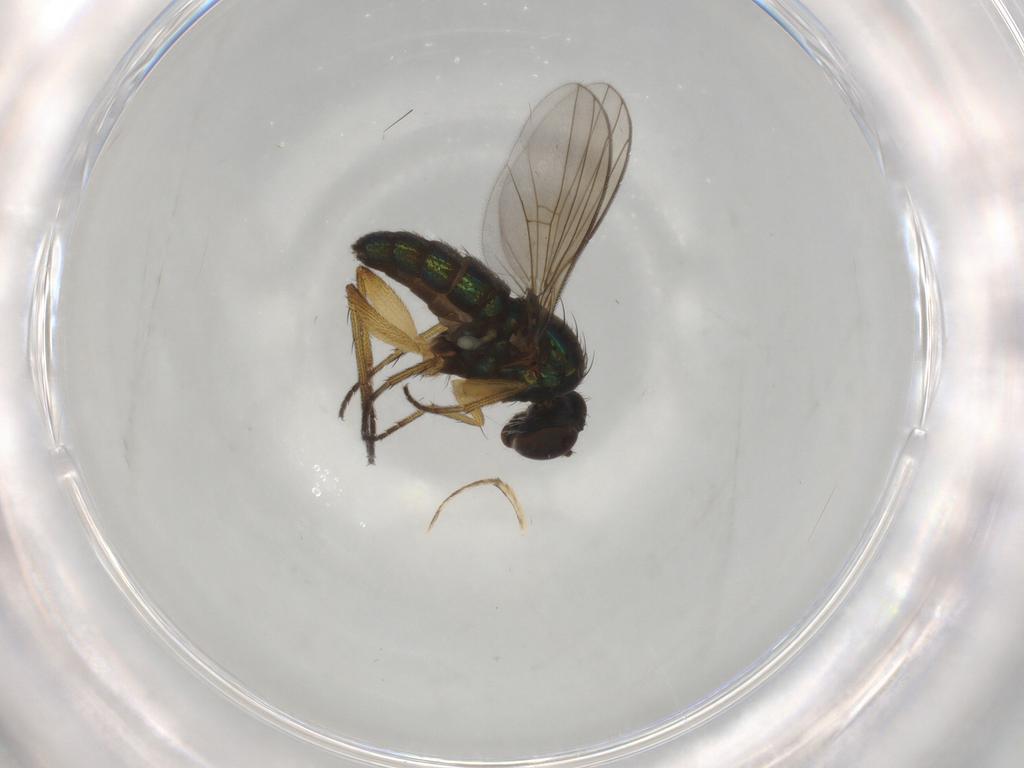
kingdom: Animalia
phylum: Arthropoda
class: Insecta
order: Diptera
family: Dolichopodidae
